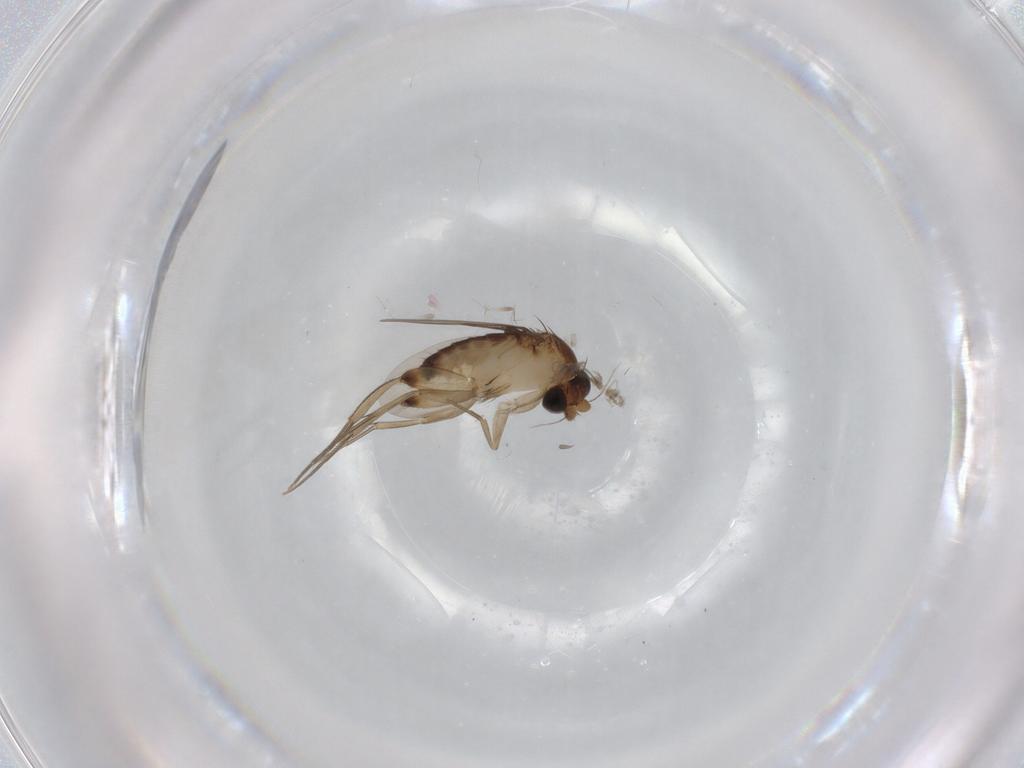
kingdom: Animalia
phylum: Arthropoda
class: Insecta
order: Diptera
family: Phoridae
